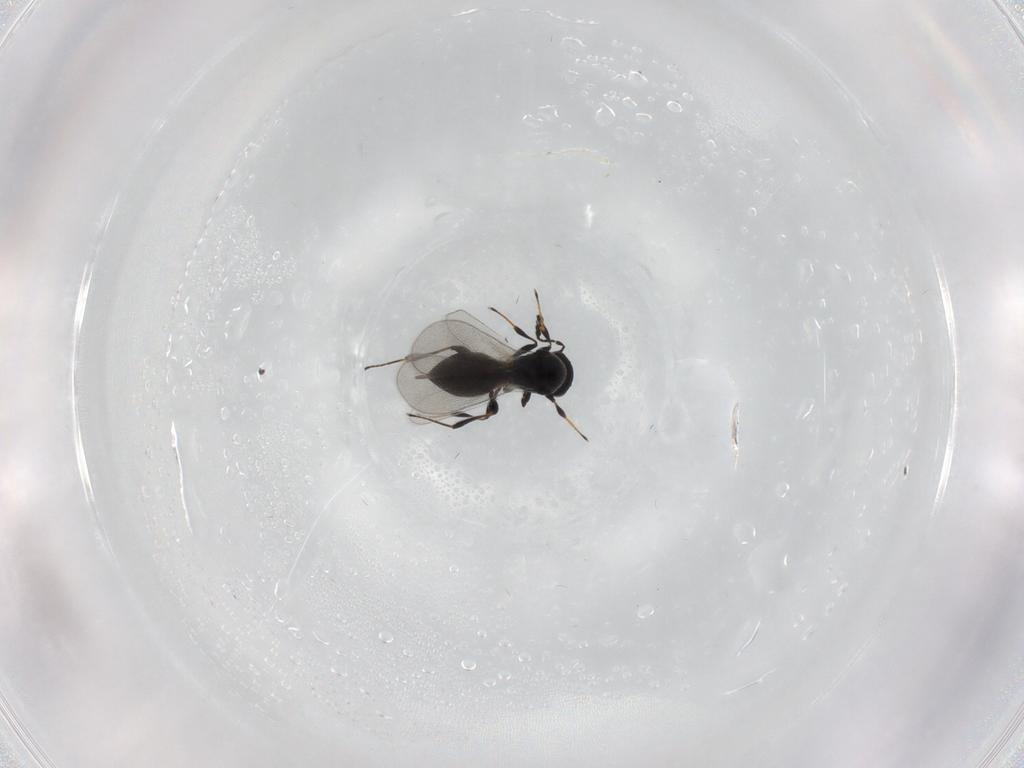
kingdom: Animalia
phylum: Arthropoda
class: Insecta
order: Hymenoptera
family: Platygastridae
